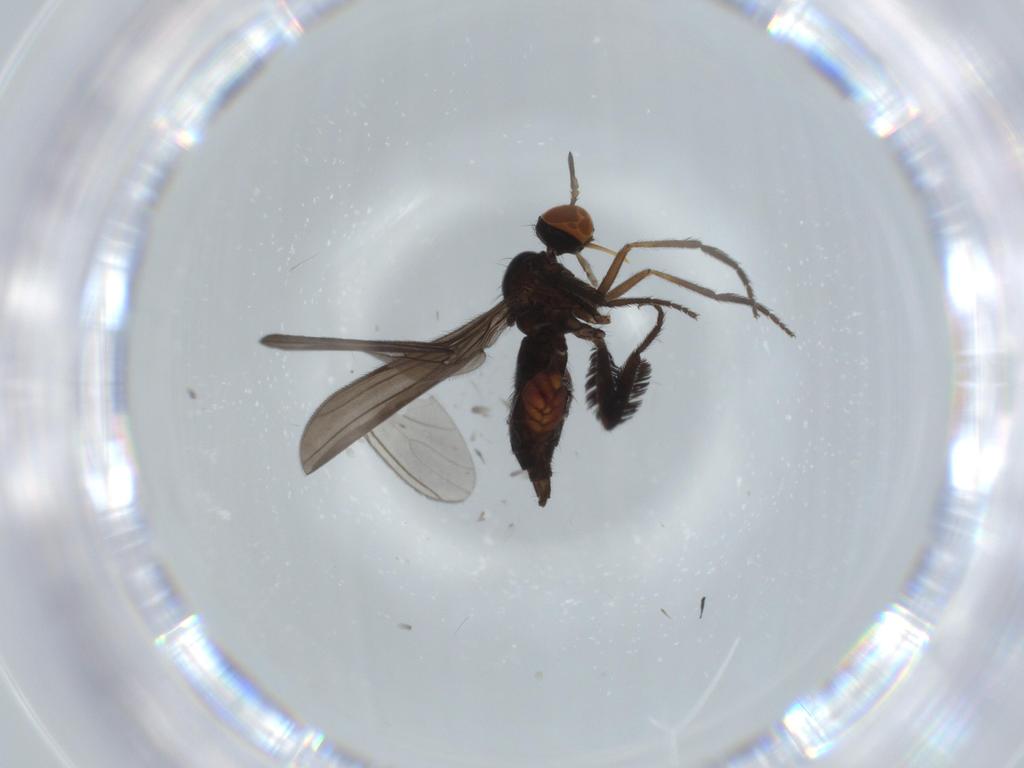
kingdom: Animalia
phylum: Arthropoda
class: Insecta
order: Diptera
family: Empididae
